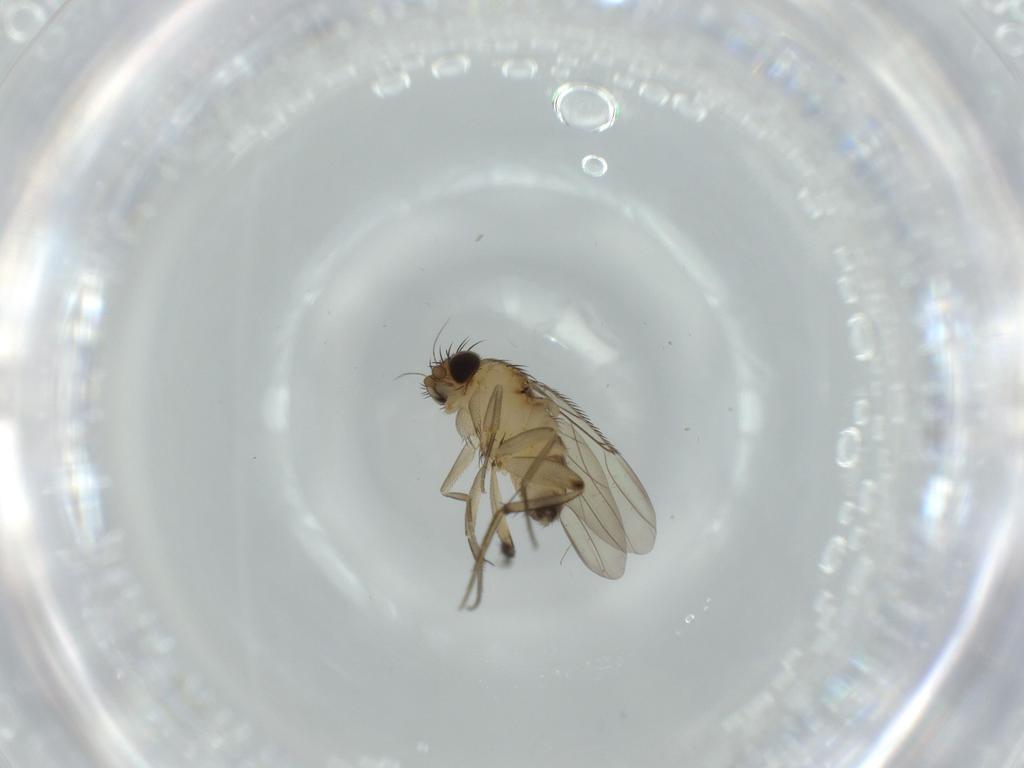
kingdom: Animalia
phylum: Arthropoda
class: Insecta
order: Diptera
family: Phoridae
